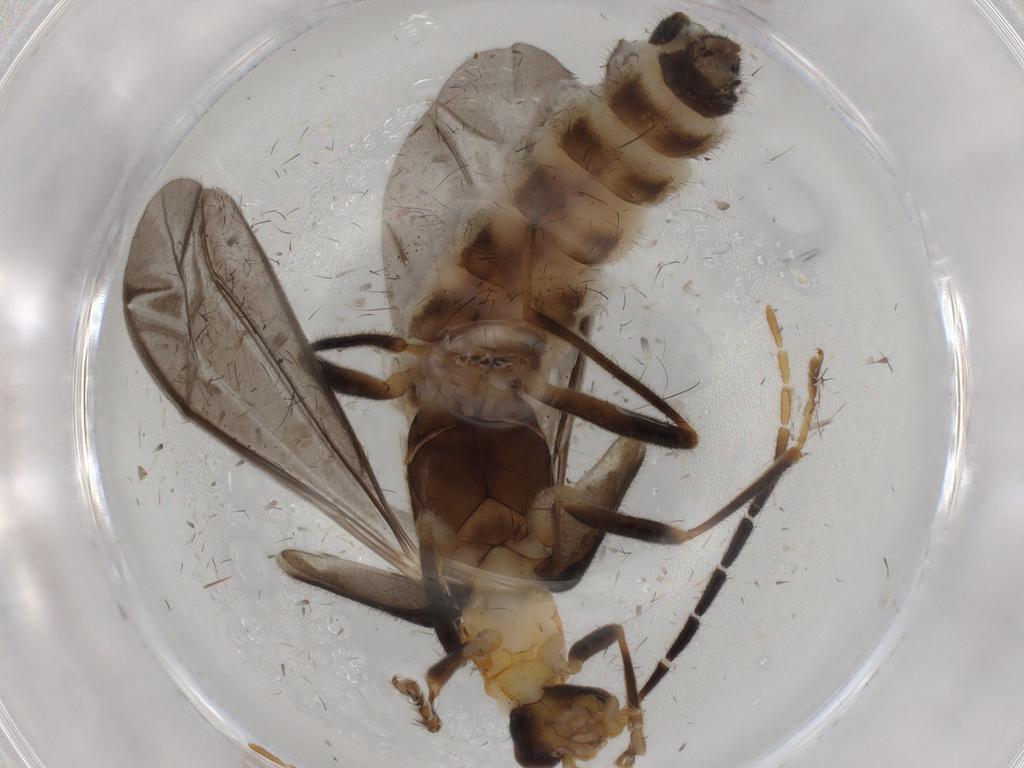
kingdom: Animalia
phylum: Arthropoda
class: Insecta
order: Coleoptera
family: Cantharidae
